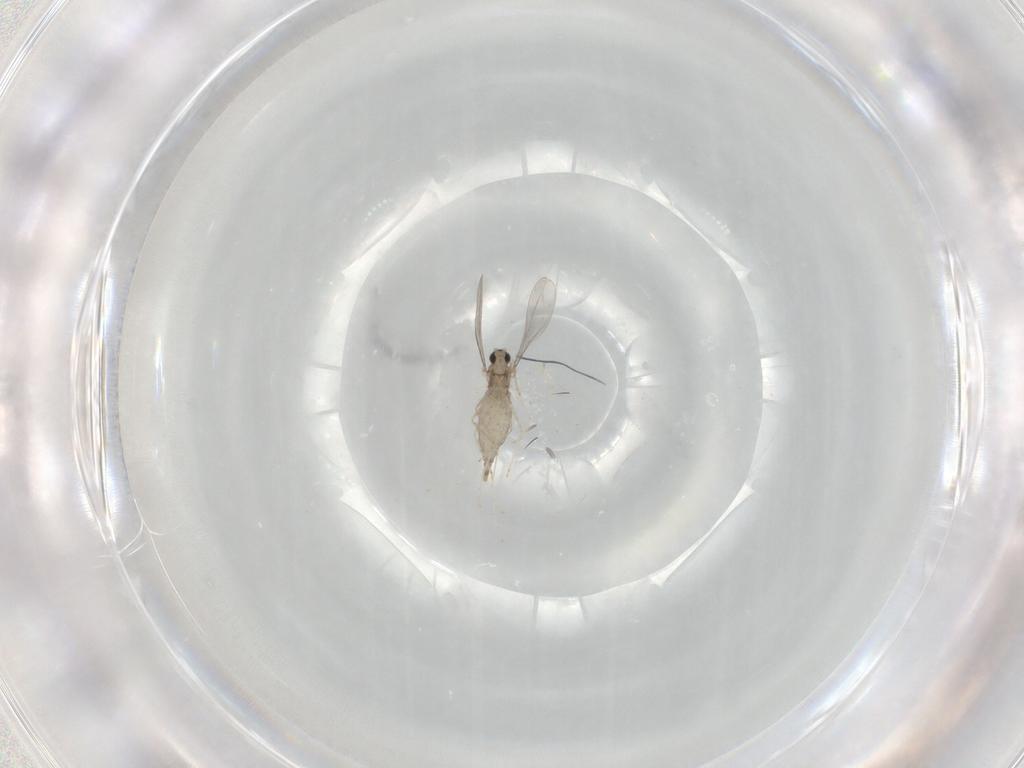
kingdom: Animalia
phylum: Arthropoda
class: Insecta
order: Diptera
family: Cecidomyiidae
